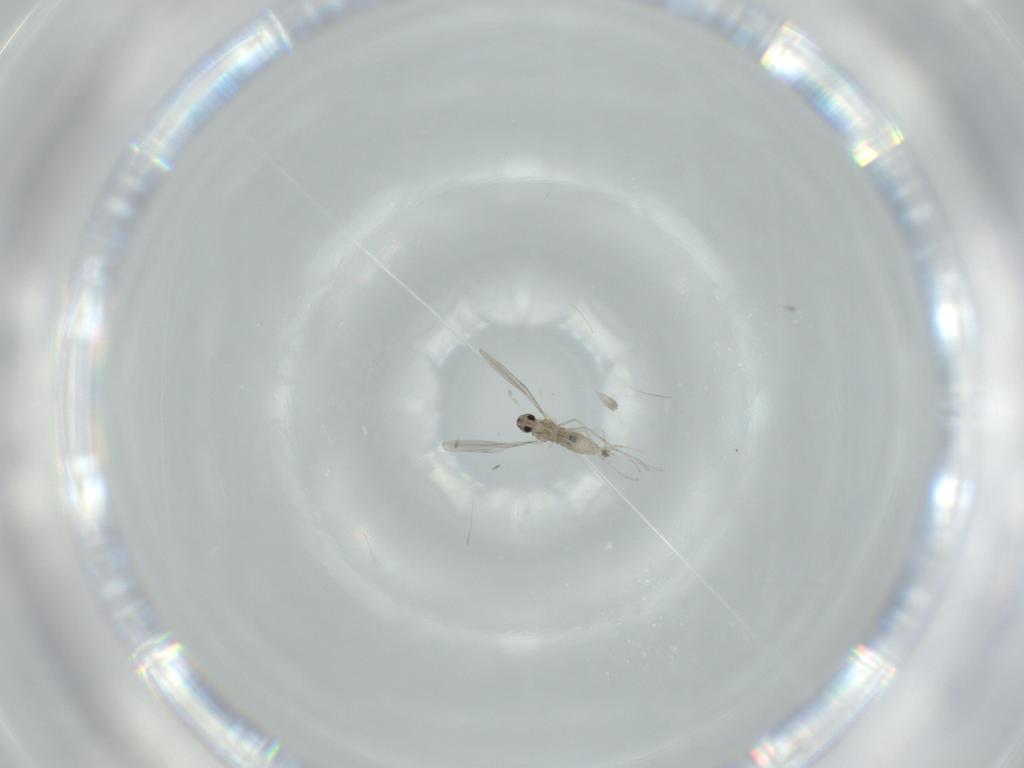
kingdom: Animalia
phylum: Arthropoda
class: Insecta
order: Diptera
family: Cecidomyiidae
